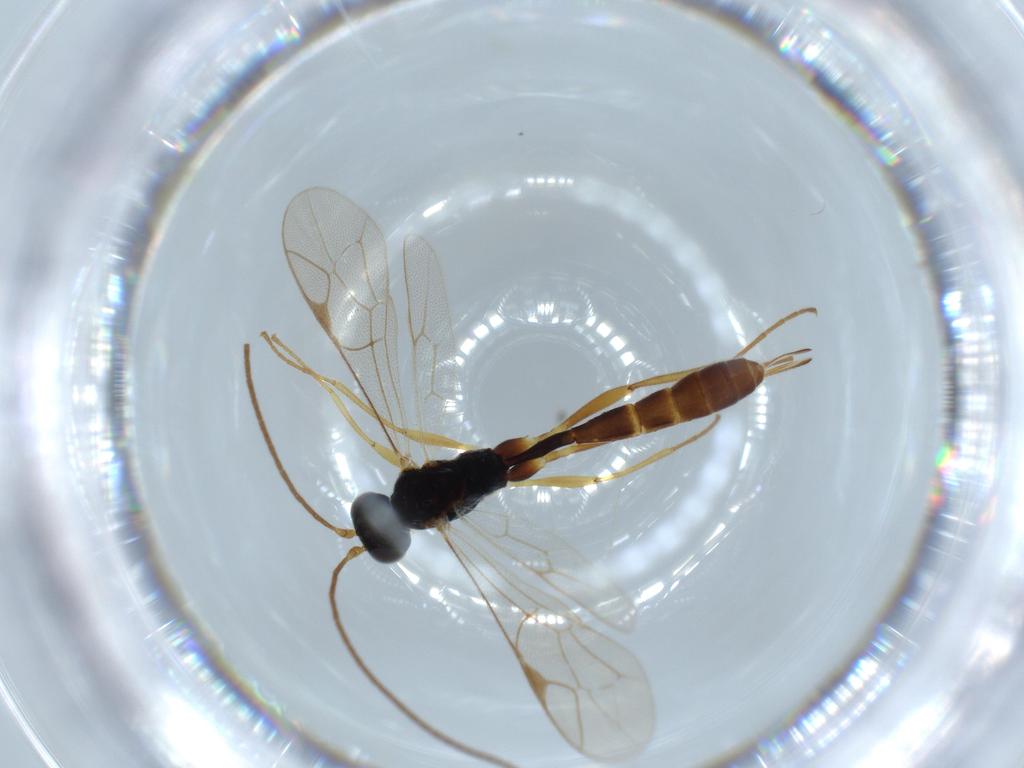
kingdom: Animalia
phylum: Arthropoda
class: Insecta
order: Hymenoptera
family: Ichneumonidae
